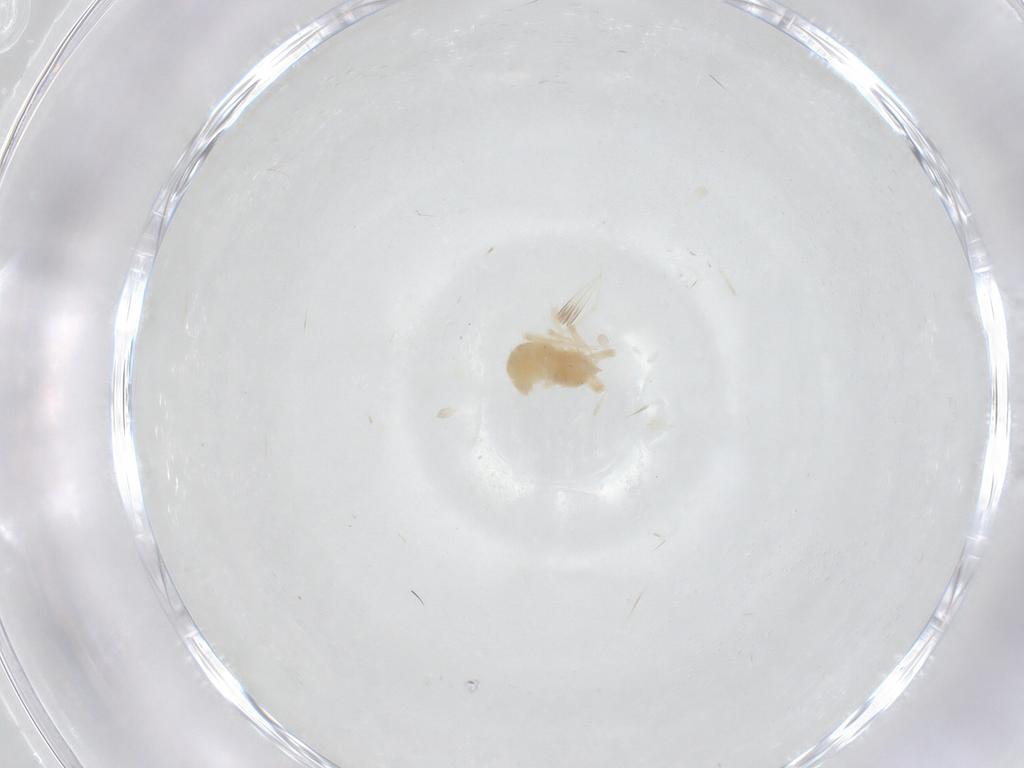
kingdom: Animalia
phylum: Arthropoda
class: Arachnida
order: Trombidiformes
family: Anystidae
